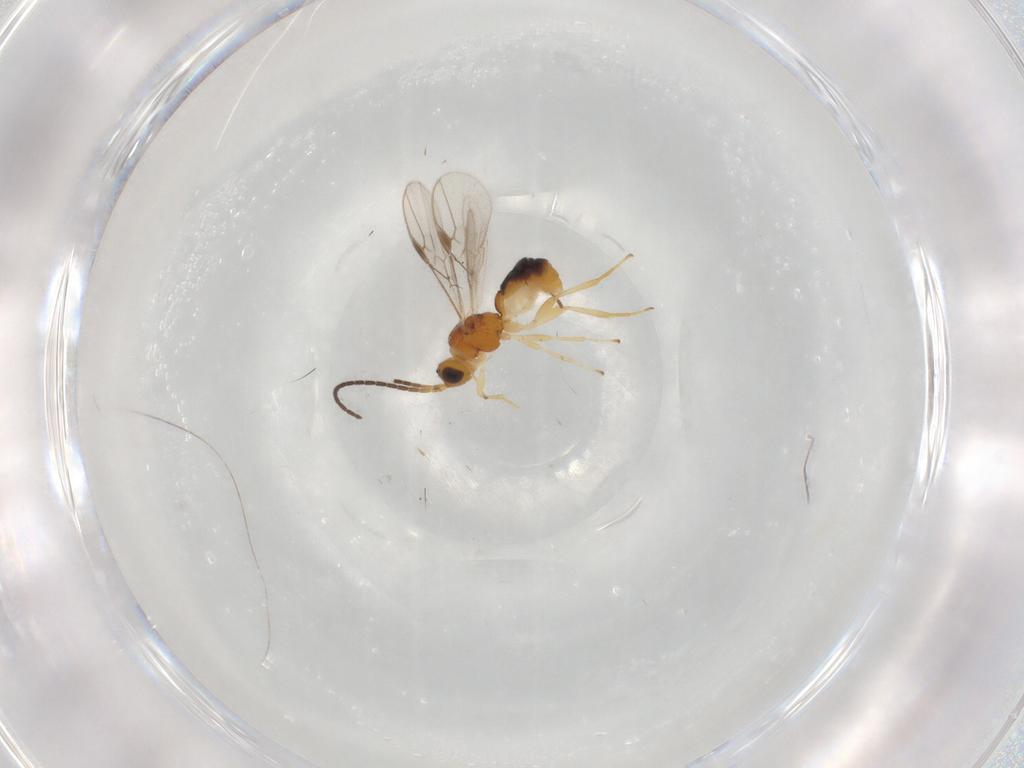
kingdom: Animalia
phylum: Arthropoda
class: Insecta
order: Hymenoptera
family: Braconidae
